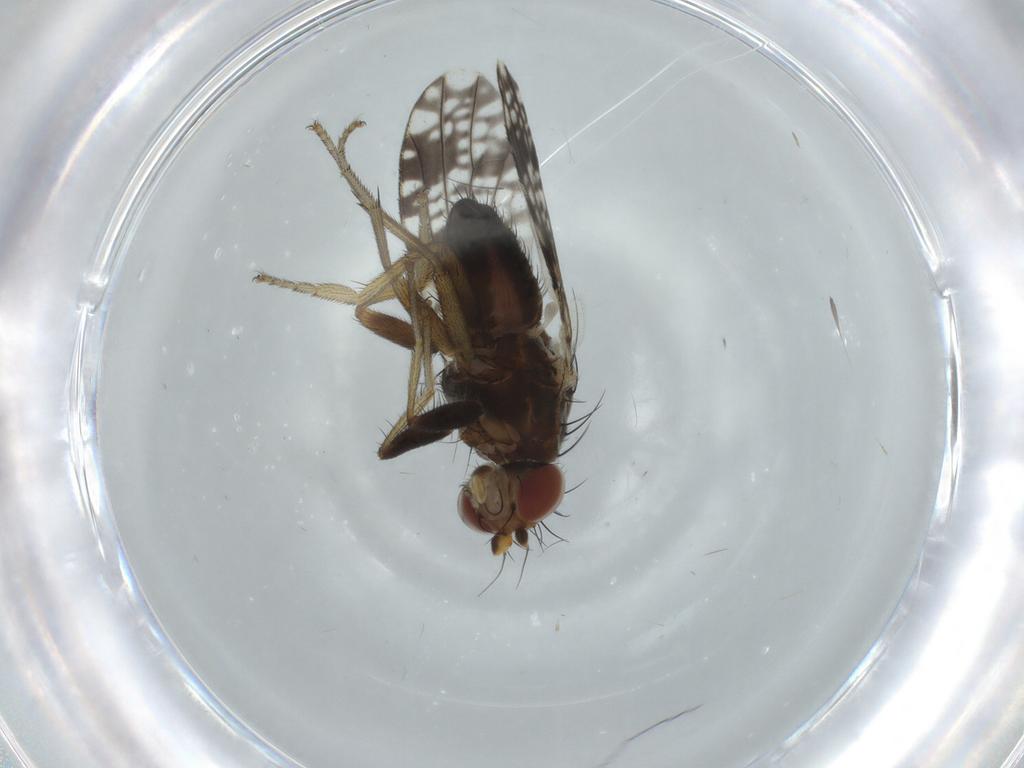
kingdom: Animalia
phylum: Arthropoda
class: Insecta
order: Diptera
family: Tephritidae
